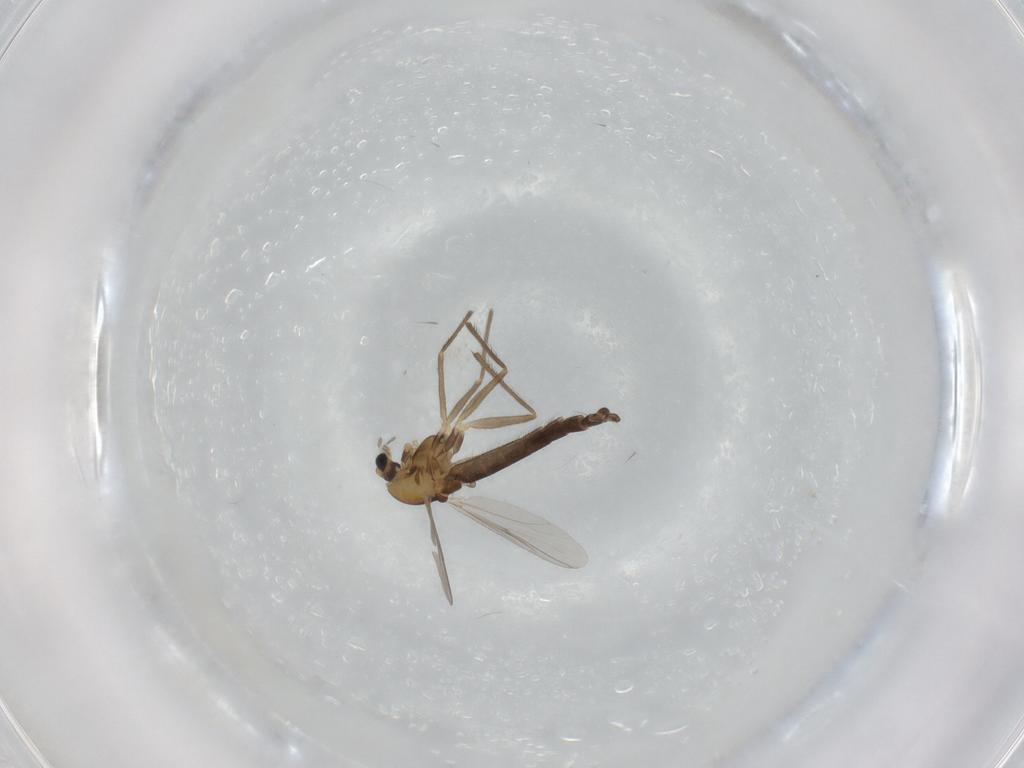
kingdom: Animalia
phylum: Arthropoda
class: Insecta
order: Diptera
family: Chironomidae
